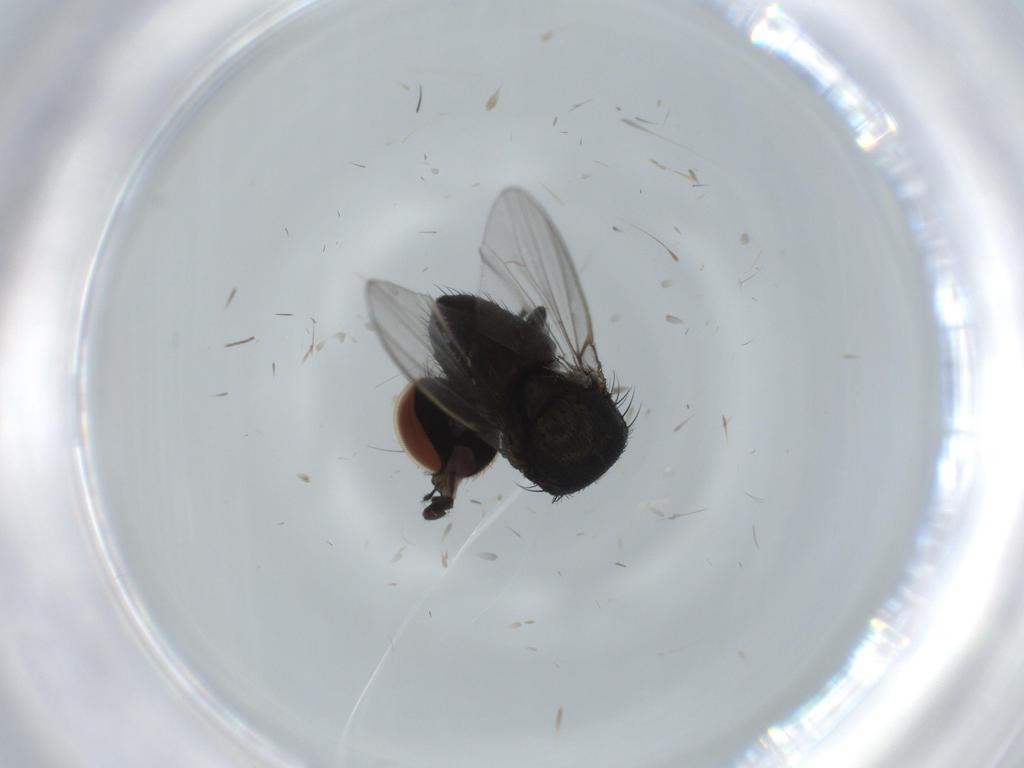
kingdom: Animalia
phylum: Arthropoda
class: Insecta
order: Diptera
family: Milichiidae
